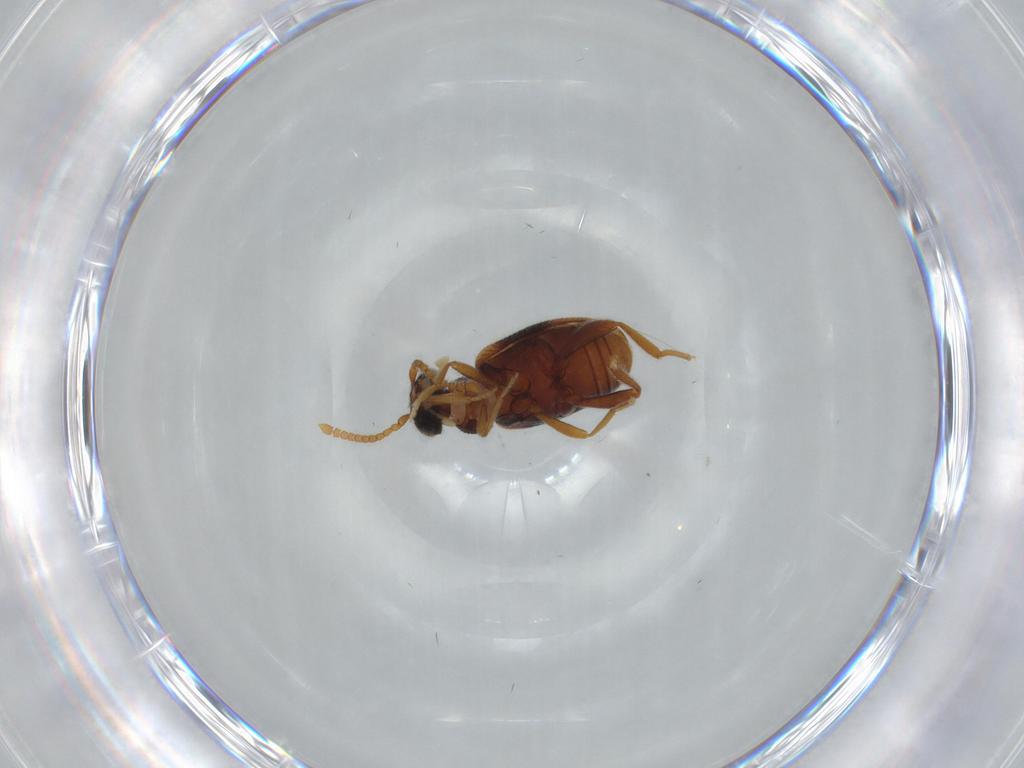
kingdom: Animalia
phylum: Arthropoda
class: Insecta
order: Coleoptera
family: Aderidae
